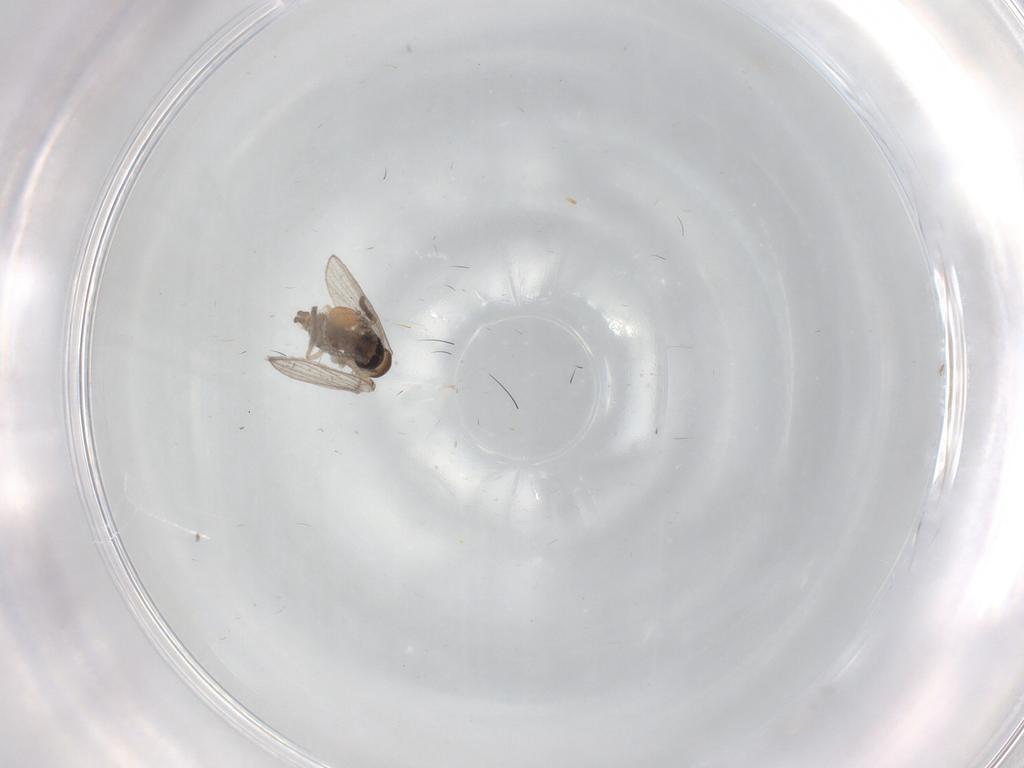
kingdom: Animalia
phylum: Arthropoda
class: Insecta
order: Diptera
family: Psychodidae
